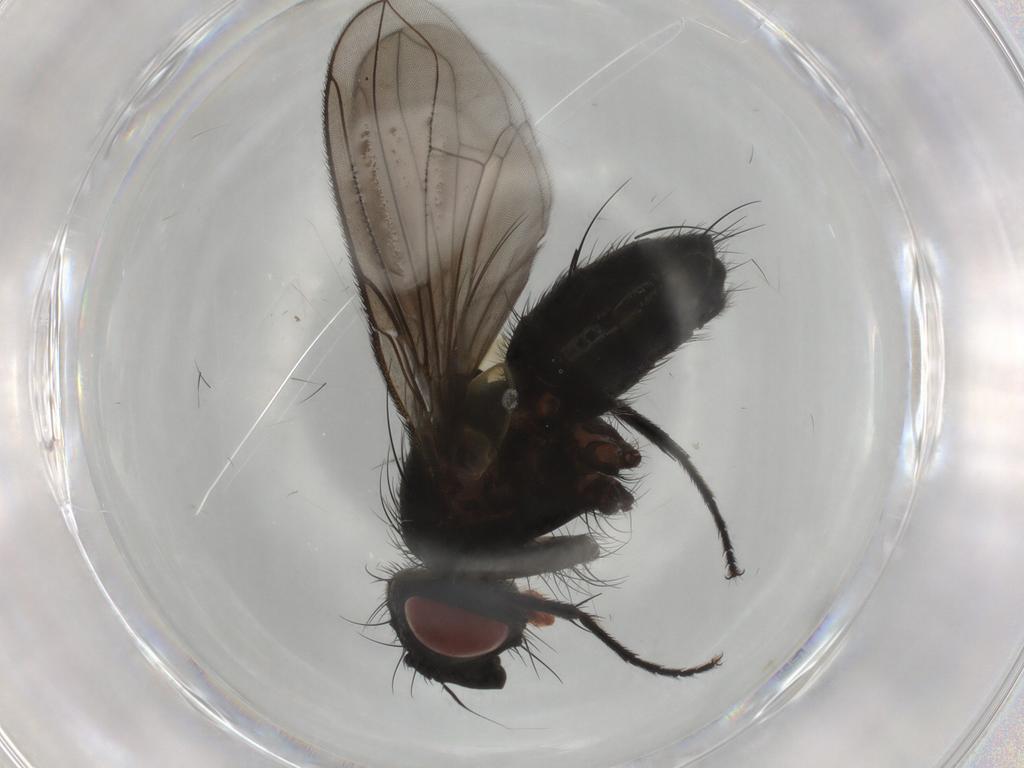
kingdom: Animalia
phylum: Arthropoda
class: Insecta
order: Diptera
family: Tachinidae
